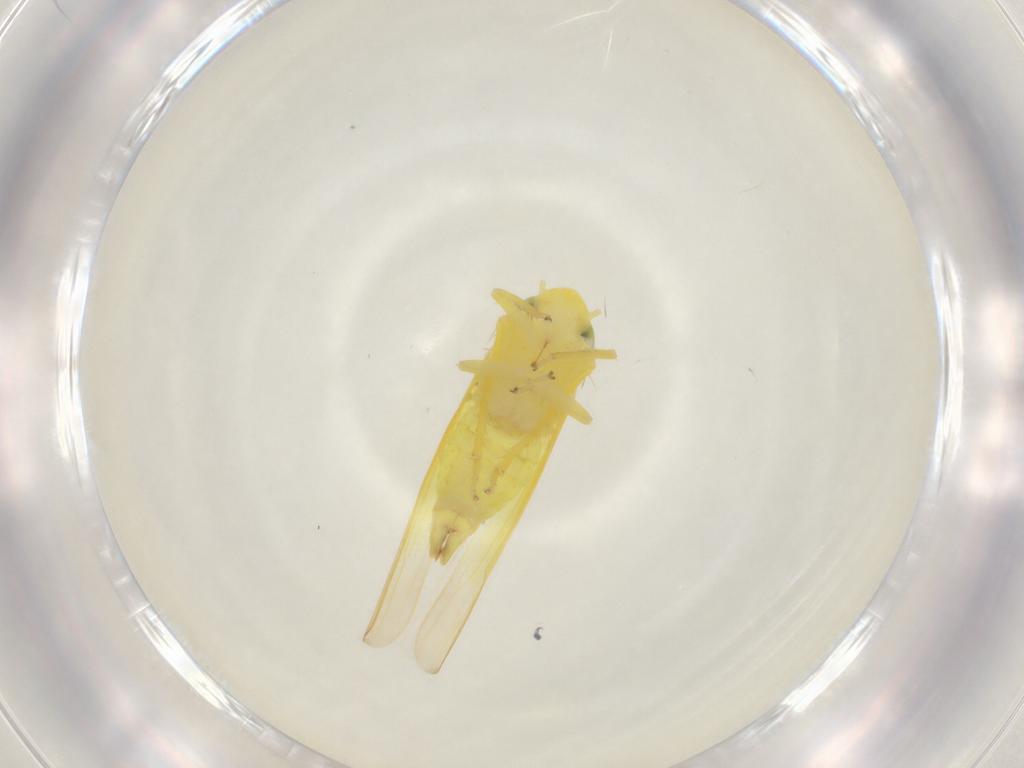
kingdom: Animalia
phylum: Arthropoda
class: Insecta
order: Hemiptera
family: Cicadellidae
